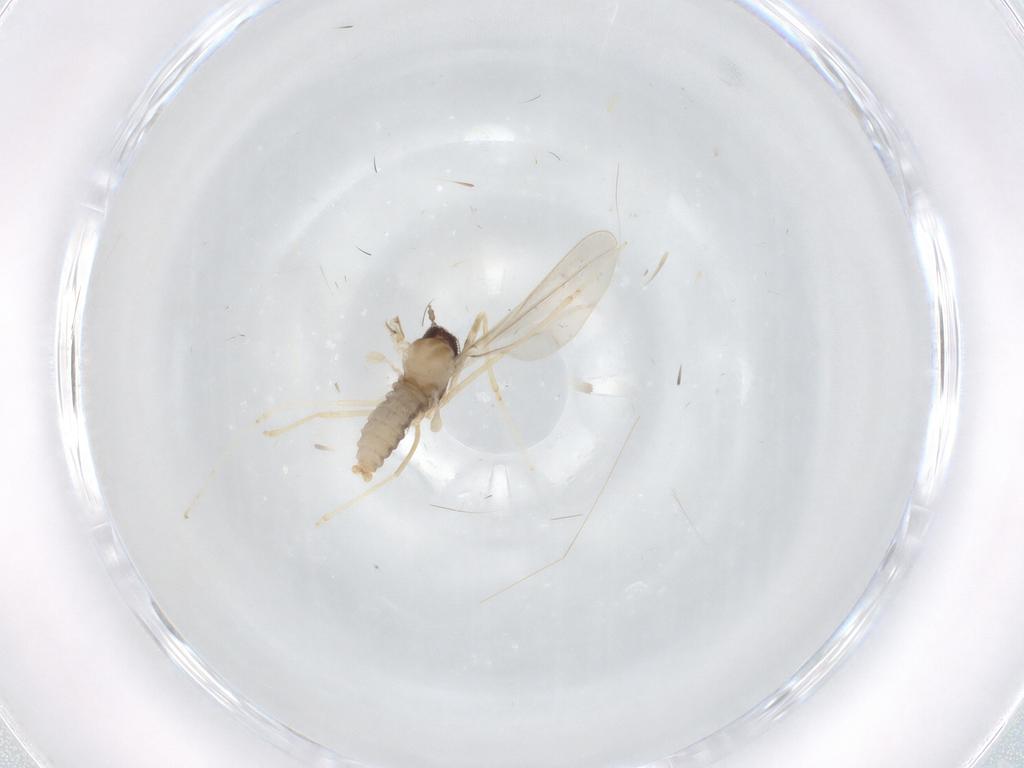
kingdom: Animalia
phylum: Arthropoda
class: Insecta
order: Diptera
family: Cecidomyiidae
